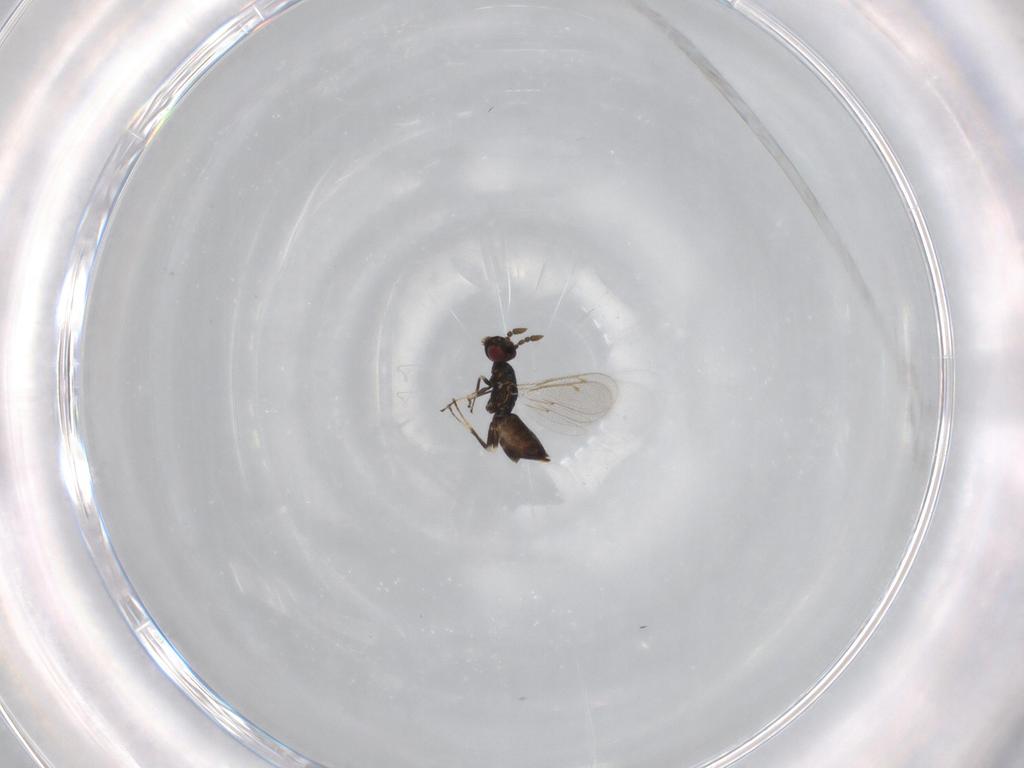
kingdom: Animalia
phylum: Arthropoda
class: Insecta
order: Hymenoptera
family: Eulophidae
